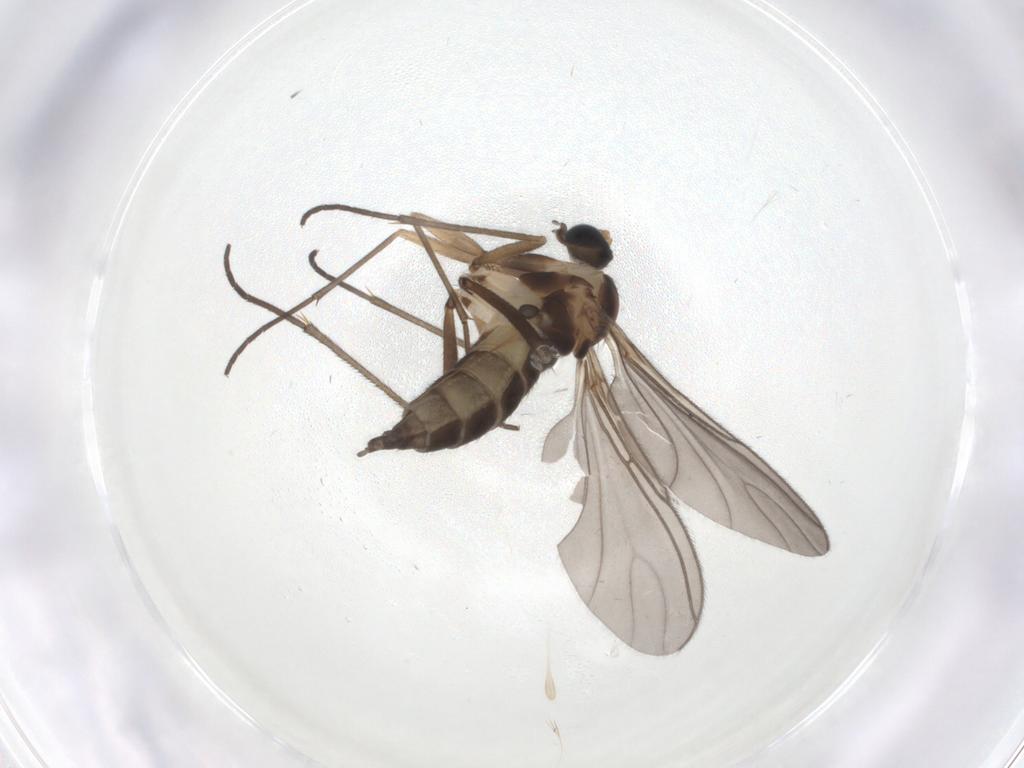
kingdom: Animalia
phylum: Arthropoda
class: Insecta
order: Diptera
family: Sciaridae
